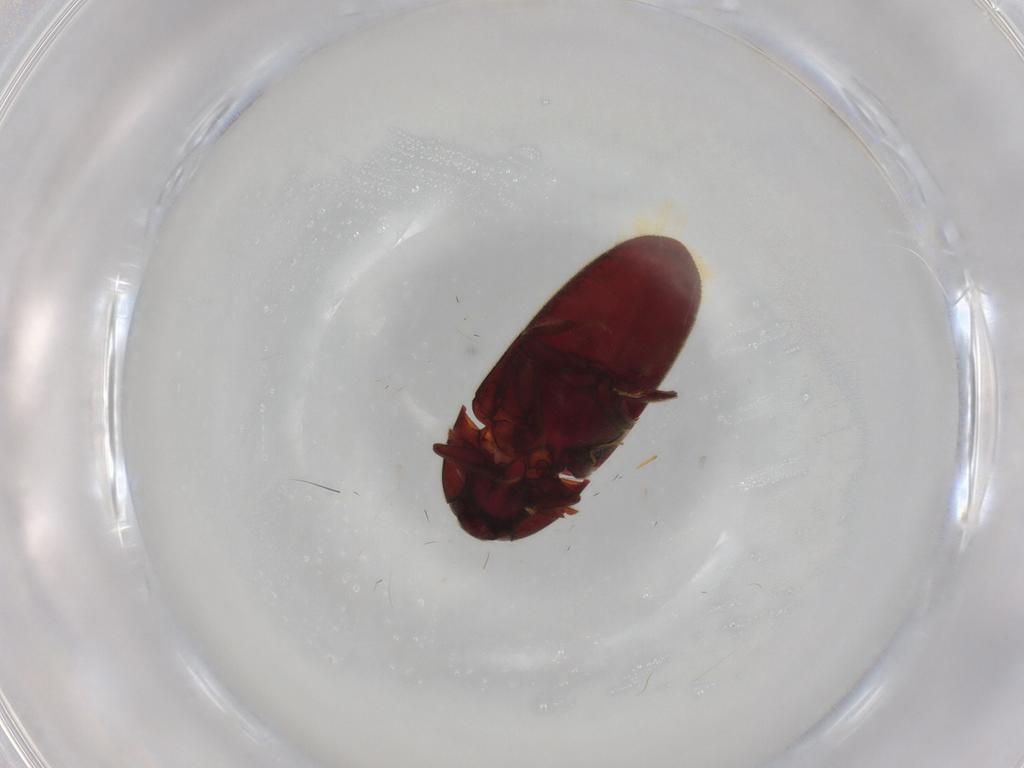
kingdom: Animalia
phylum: Arthropoda
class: Insecta
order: Coleoptera
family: Throscidae
